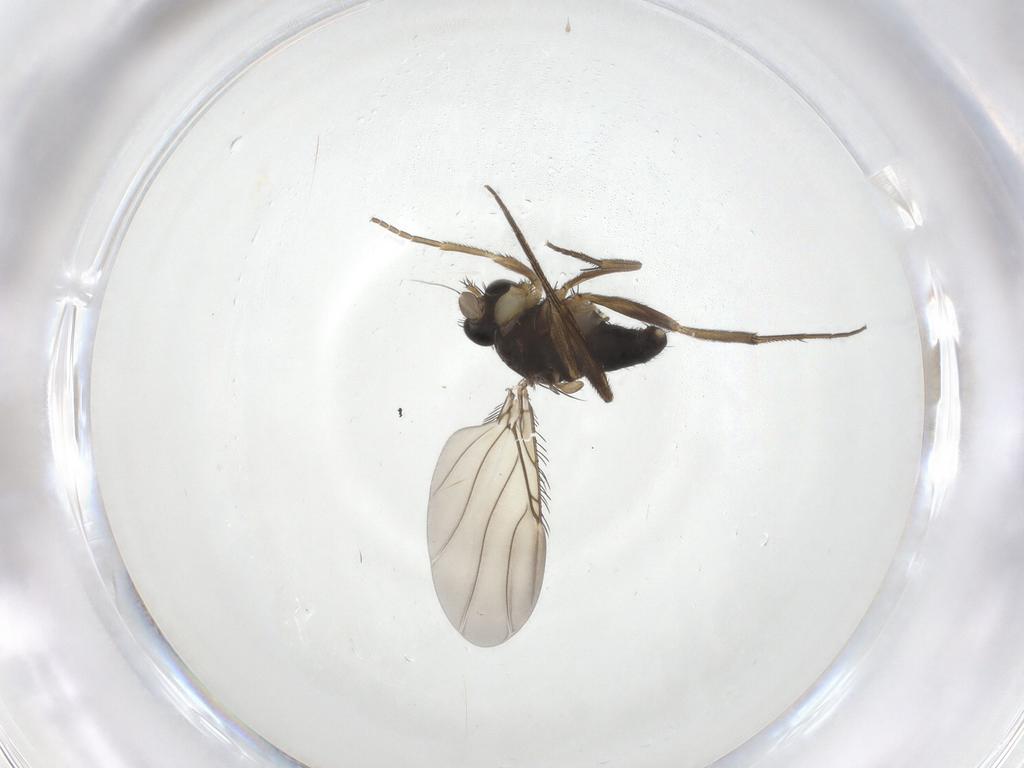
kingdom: Animalia
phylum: Arthropoda
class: Insecta
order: Diptera
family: Phoridae
